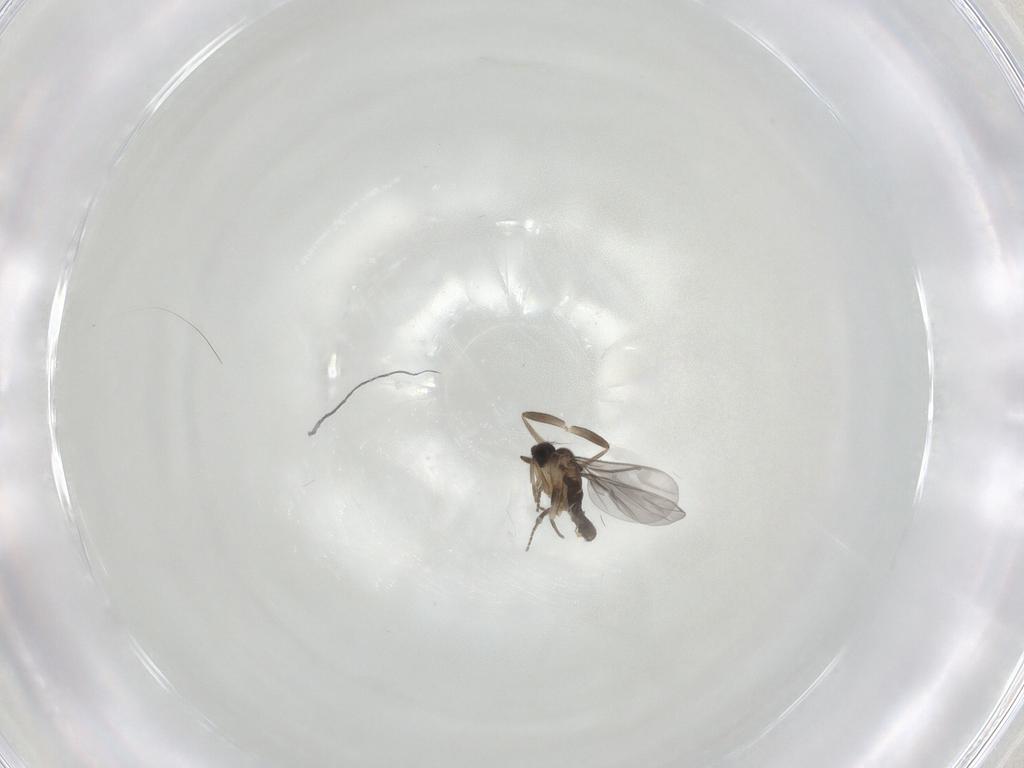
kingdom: Animalia
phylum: Arthropoda
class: Insecta
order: Diptera
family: Phoridae
